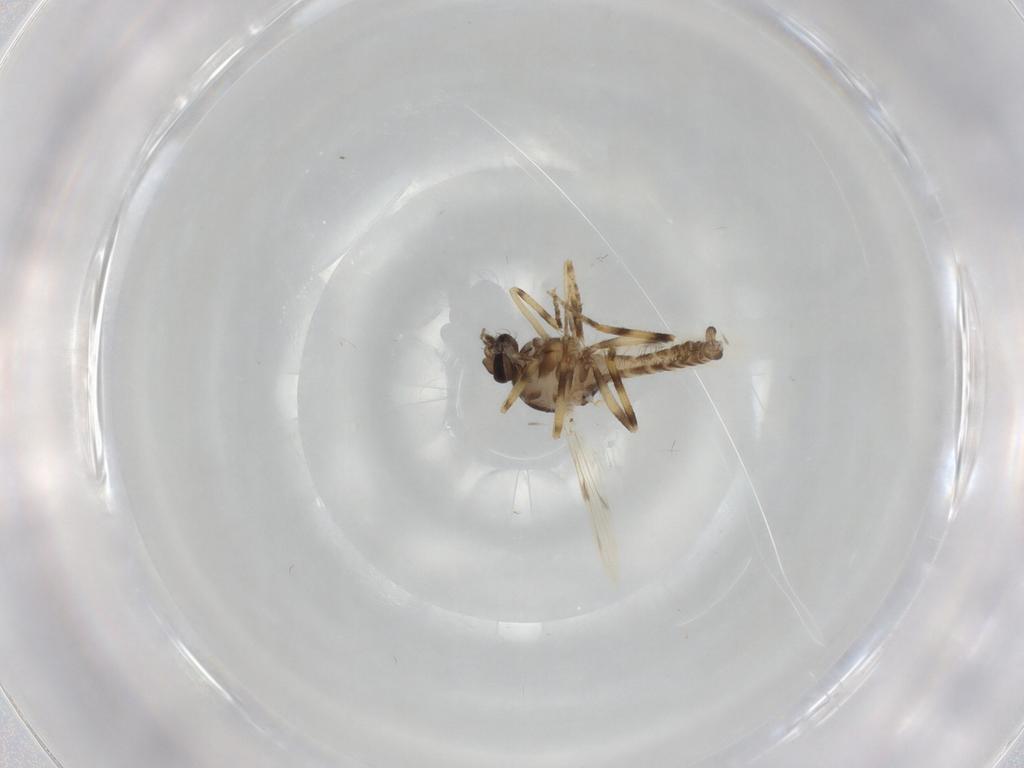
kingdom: Animalia
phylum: Arthropoda
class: Insecta
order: Diptera
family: Ceratopogonidae
